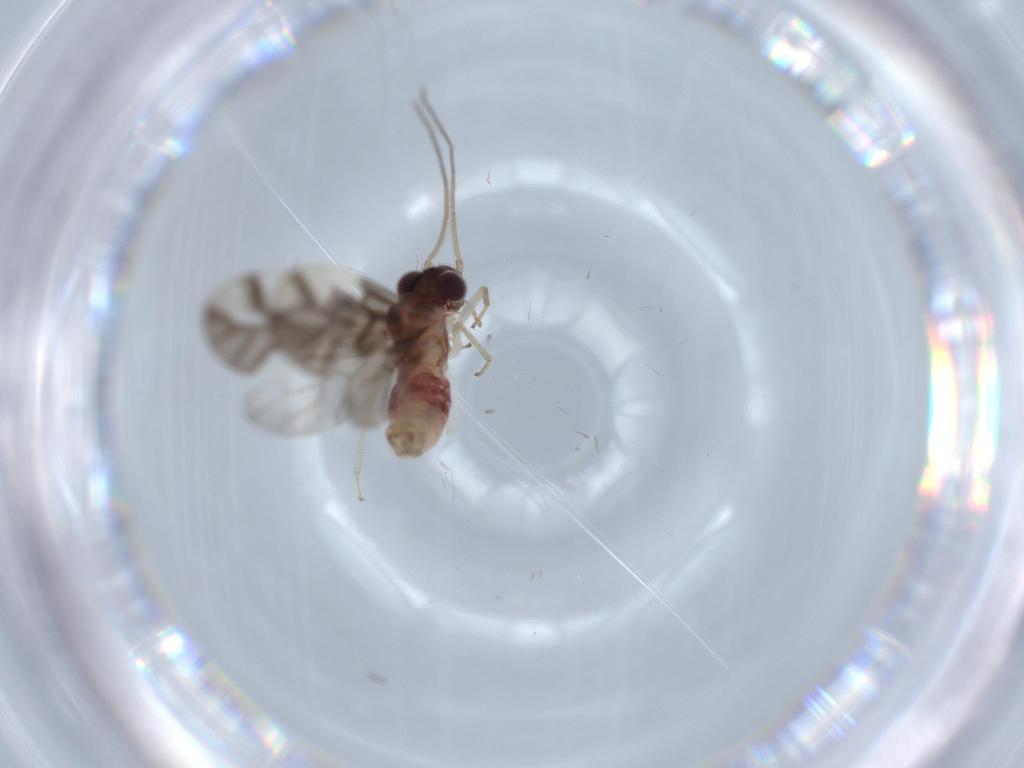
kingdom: Animalia
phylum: Arthropoda
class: Insecta
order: Psocodea
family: Caeciliusidae
